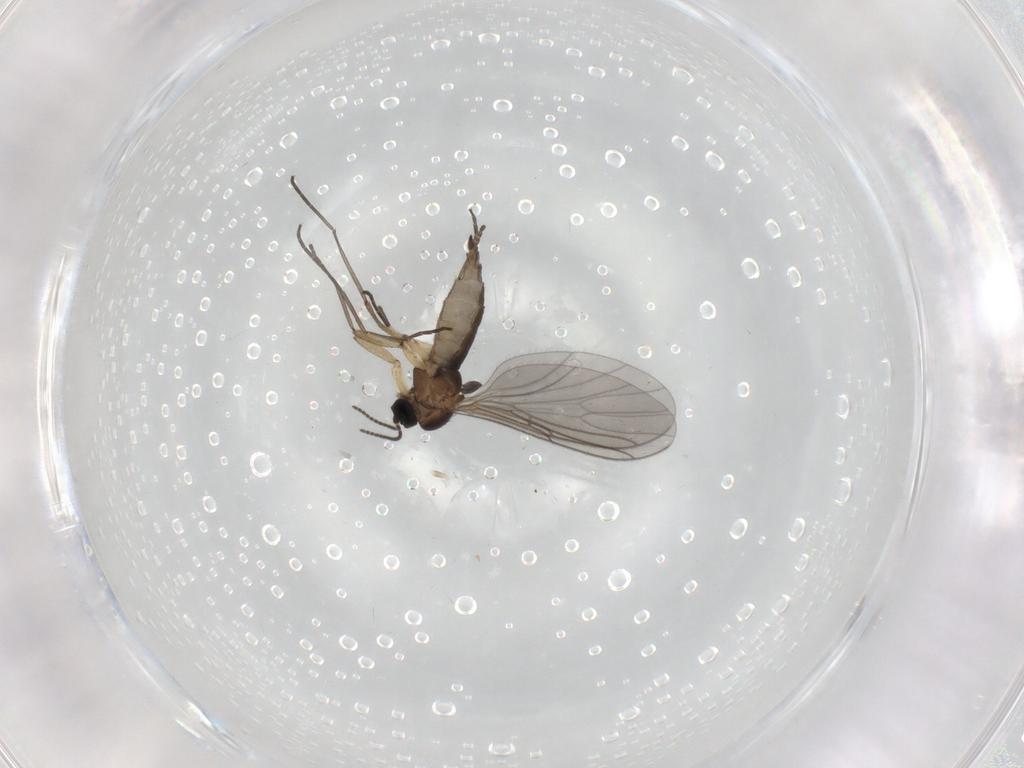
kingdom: Animalia
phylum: Arthropoda
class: Insecta
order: Diptera
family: Sciaridae
